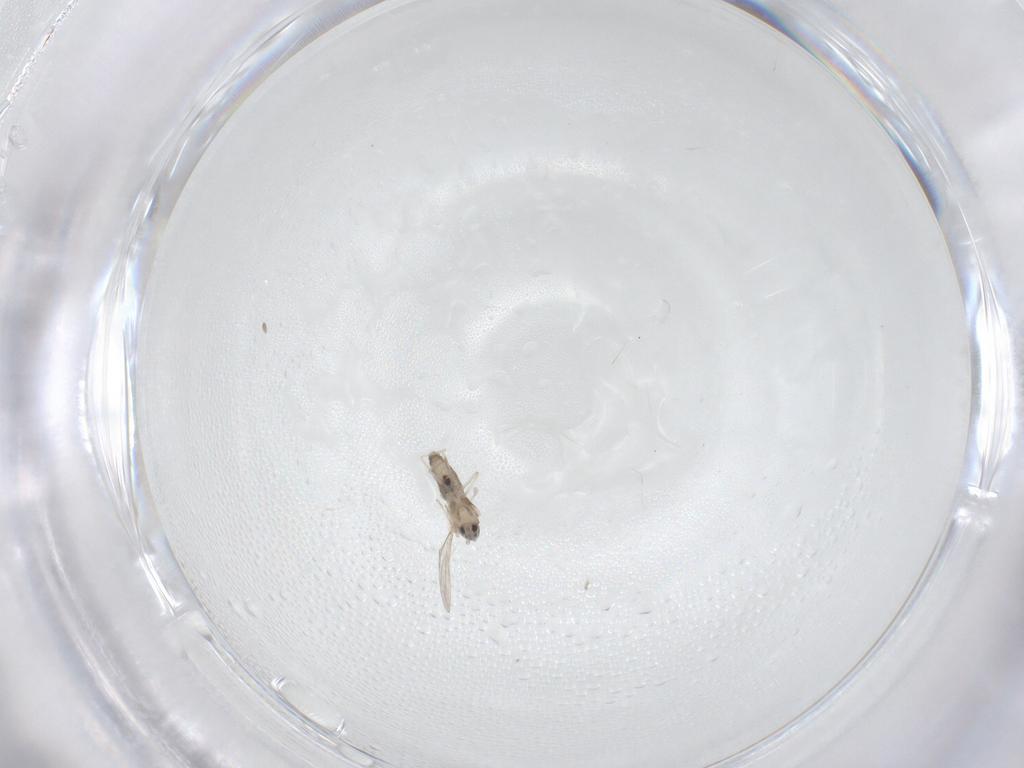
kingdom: Animalia
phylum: Arthropoda
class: Insecta
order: Diptera
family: Cecidomyiidae
